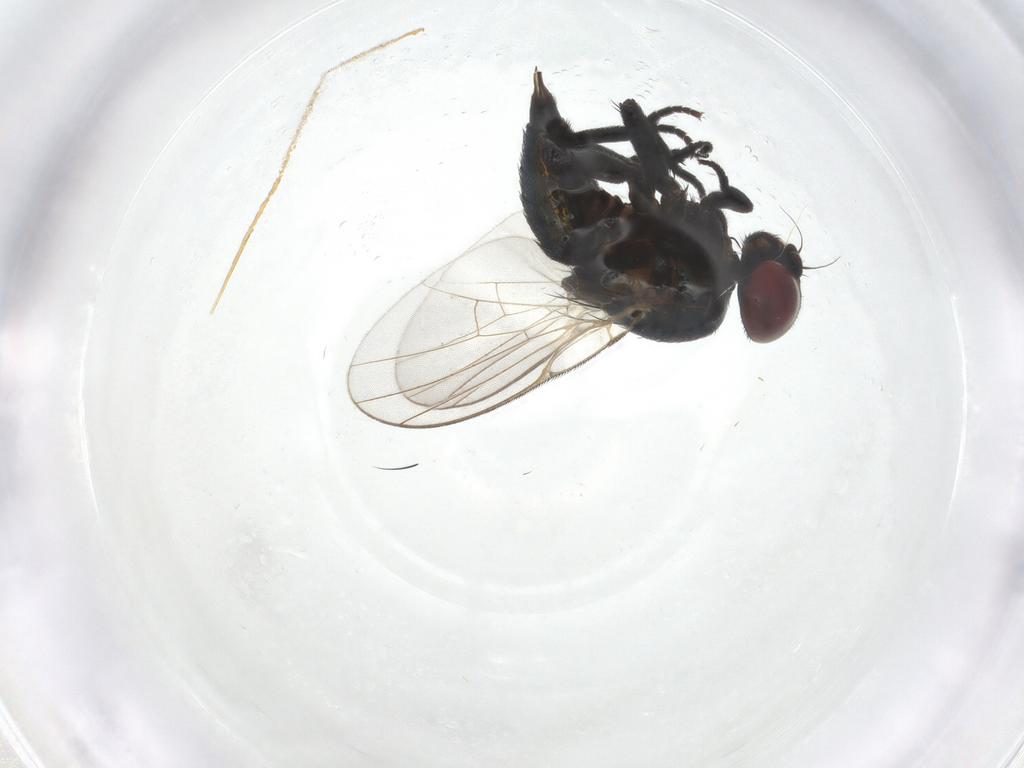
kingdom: Animalia
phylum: Arthropoda
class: Insecta
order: Diptera
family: Agromyzidae
